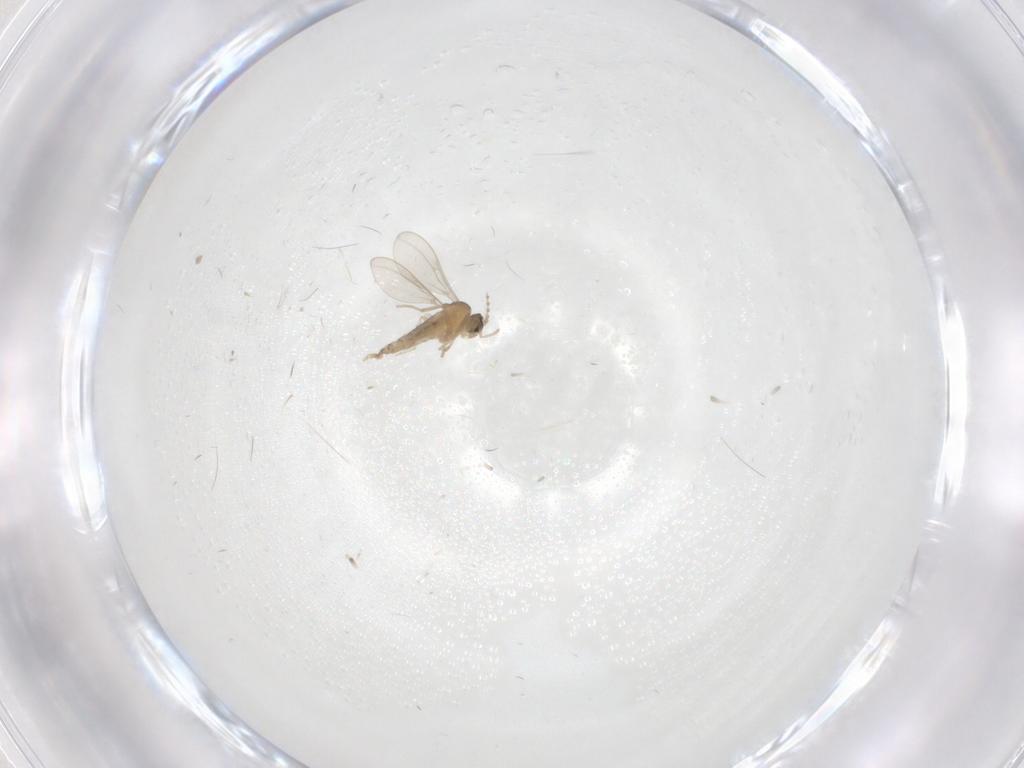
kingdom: Animalia
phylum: Arthropoda
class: Insecta
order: Diptera
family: Cecidomyiidae
